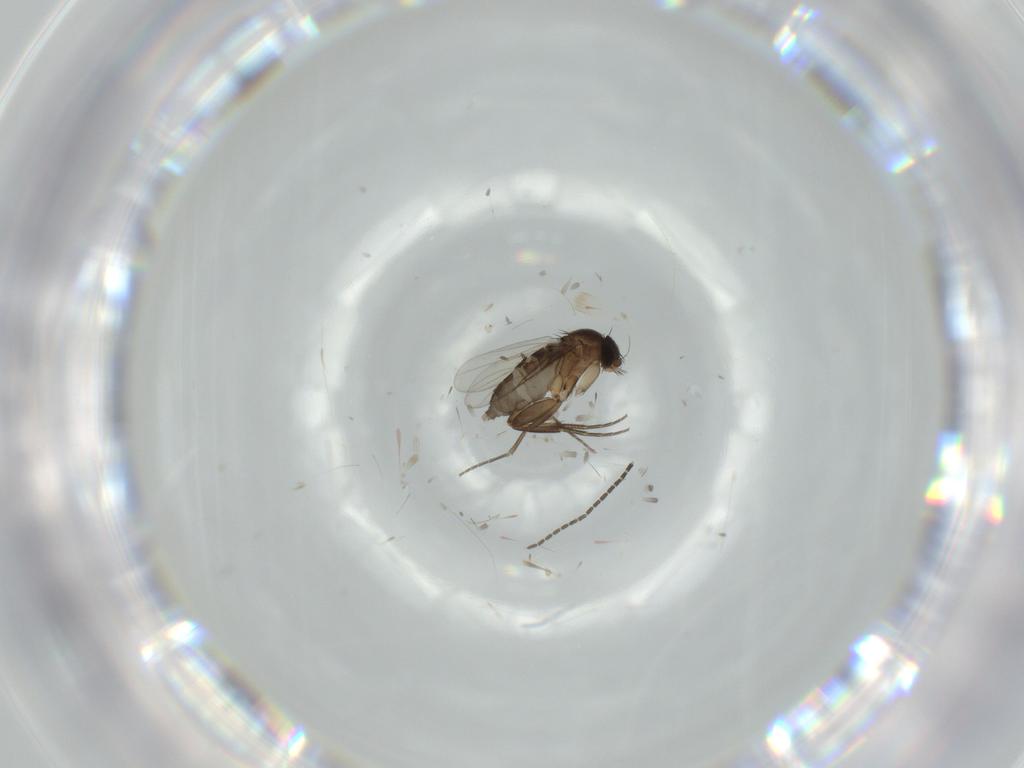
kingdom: Animalia
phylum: Arthropoda
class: Insecta
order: Diptera
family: Phoridae
